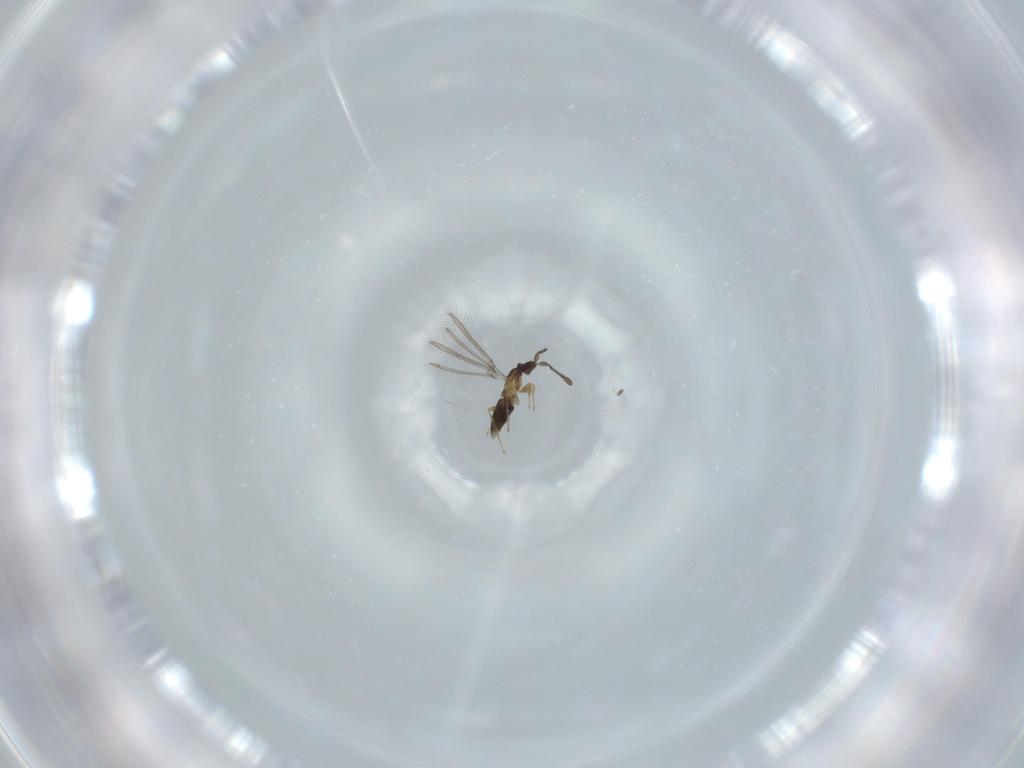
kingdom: Animalia
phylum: Arthropoda
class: Insecta
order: Hymenoptera
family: Mymaridae
